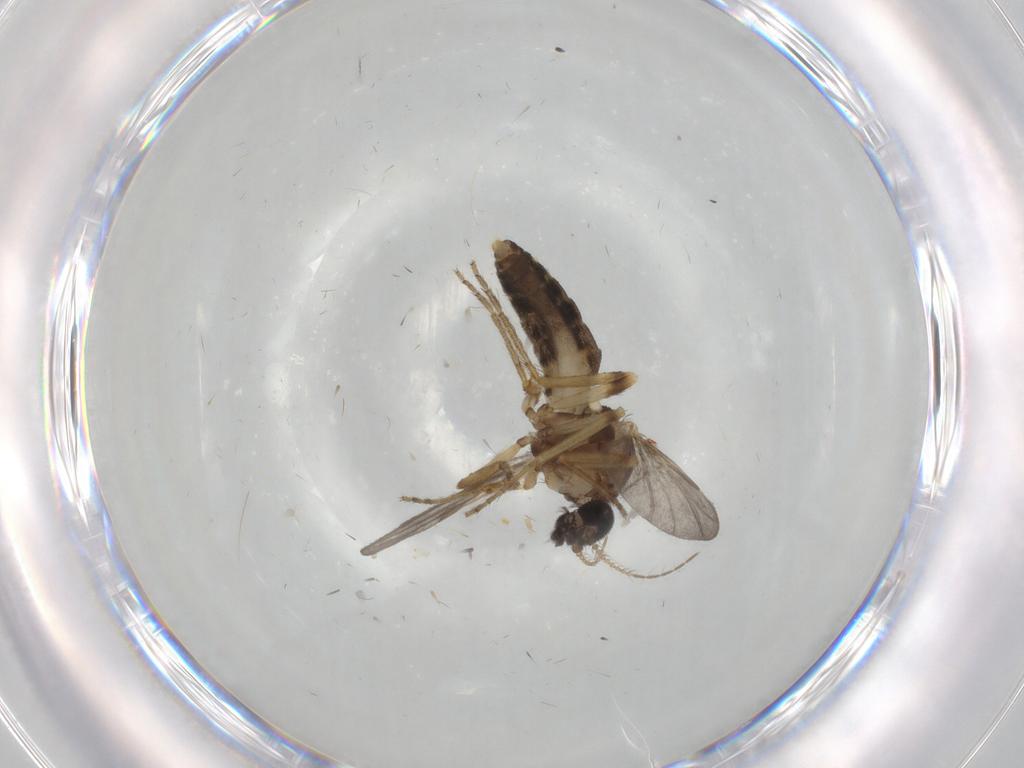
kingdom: Animalia
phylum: Arthropoda
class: Insecta
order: Diptera
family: Ceratopogonidae
